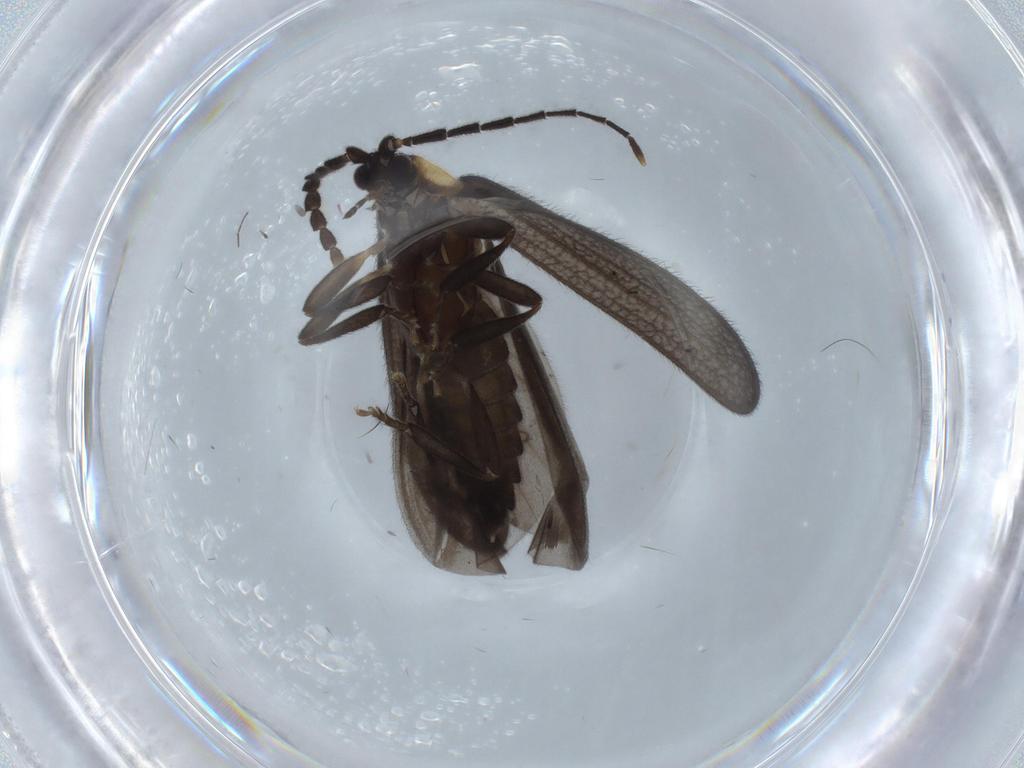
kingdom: Animalia
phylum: Arthropoda
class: Insecta
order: Coleoptera
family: Lycidae
